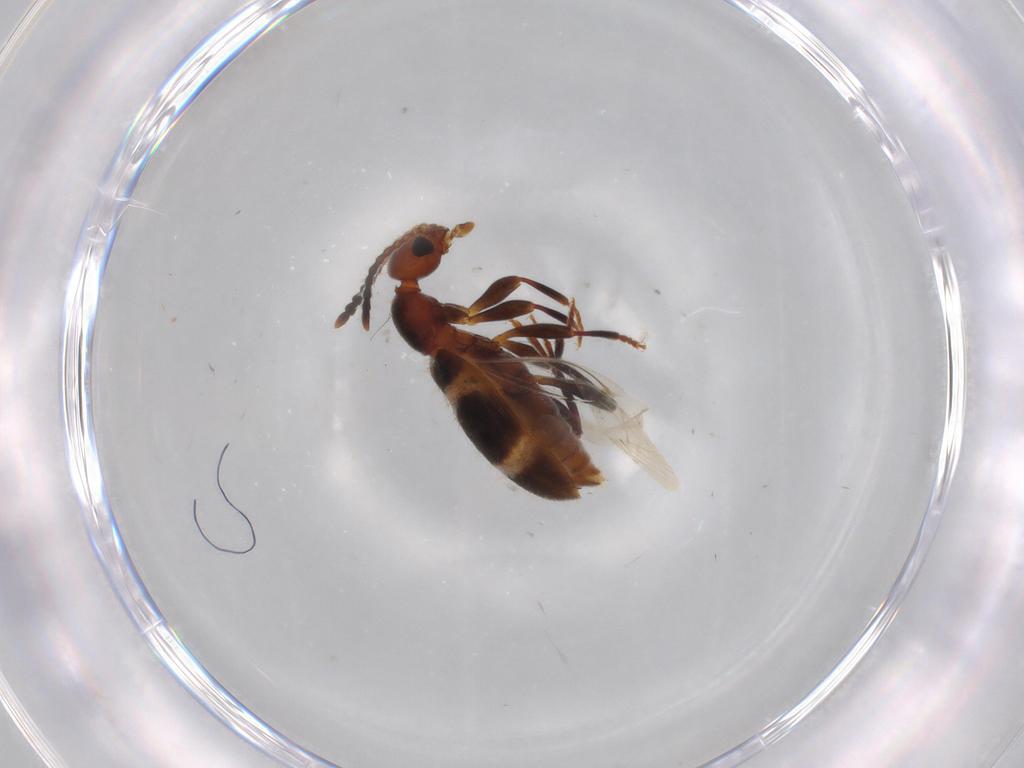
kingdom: Animalia
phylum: Arthropoda
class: Insecta
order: Coleoptera
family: Anthicidae
